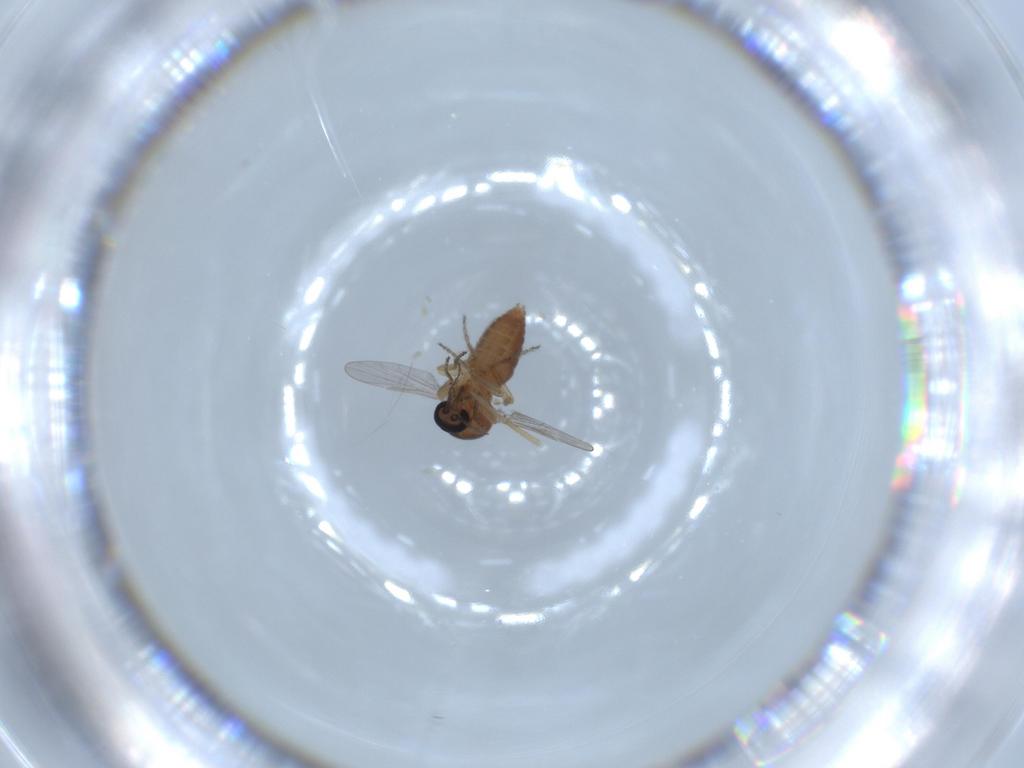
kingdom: Animalia
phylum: Arthropoda
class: Insecta
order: Diptera
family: Ceratopogonidae
